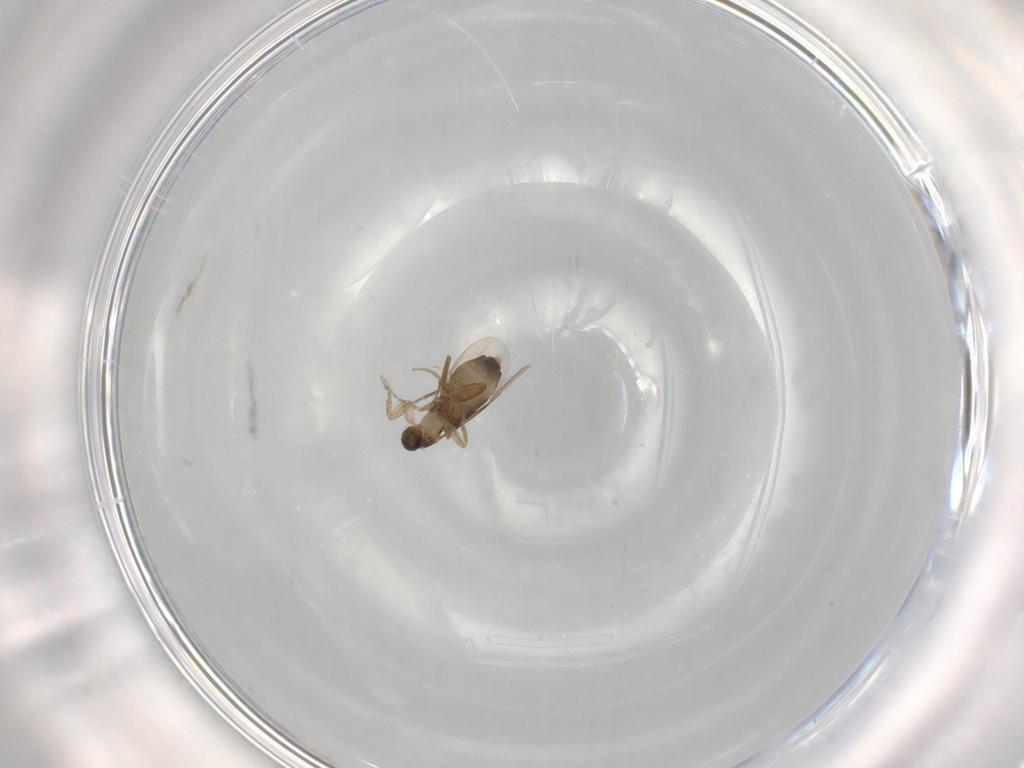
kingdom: Animalia
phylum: Arthropoda
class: Insecta
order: Diptera
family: Phoridae
